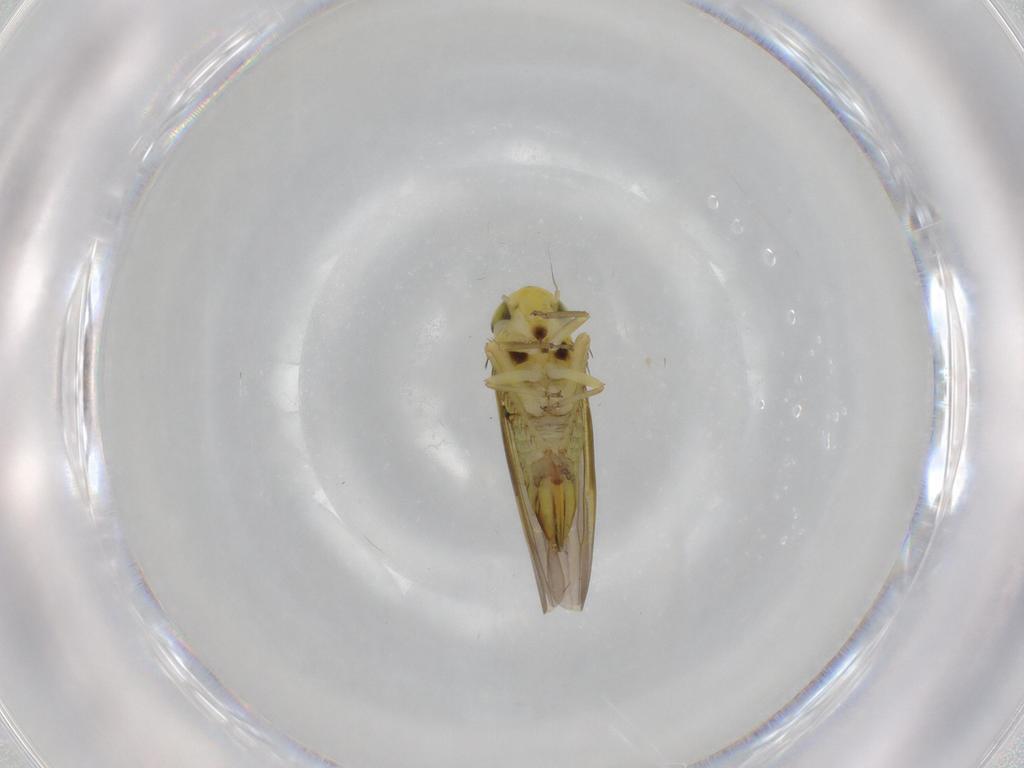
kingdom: Animalia
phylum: Arthropoda
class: Insecta
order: Hemiptera
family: Cicadellidae
